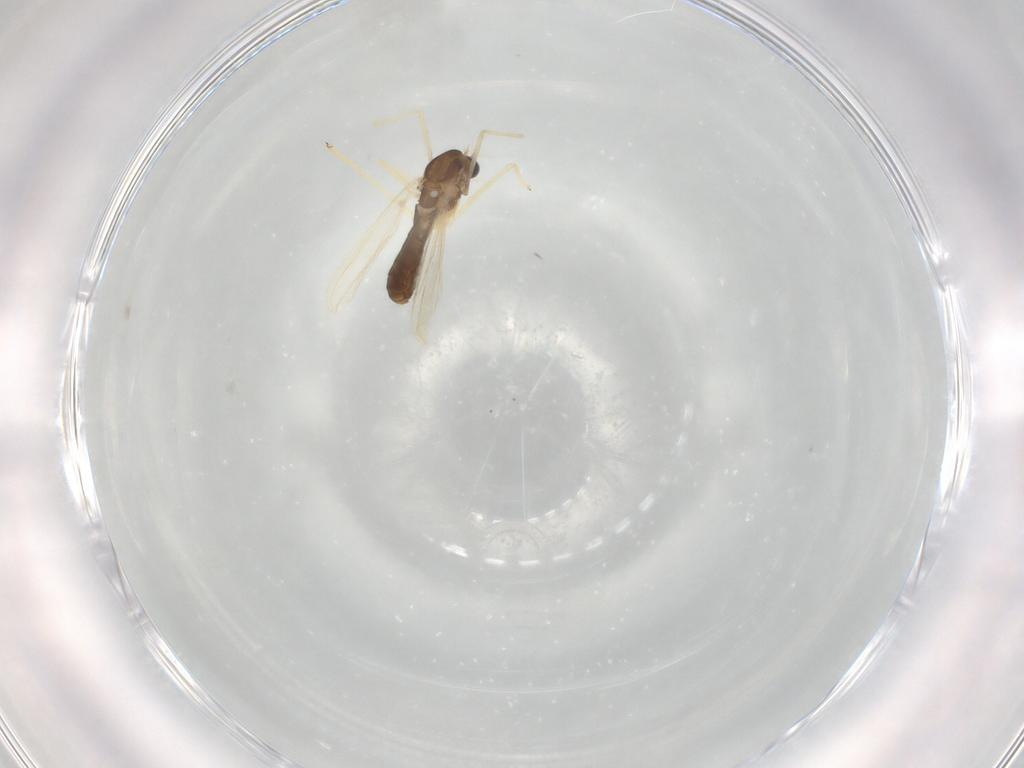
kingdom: Animalia
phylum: Arthropoda
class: Insecta
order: Diptera
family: Chironomidae
